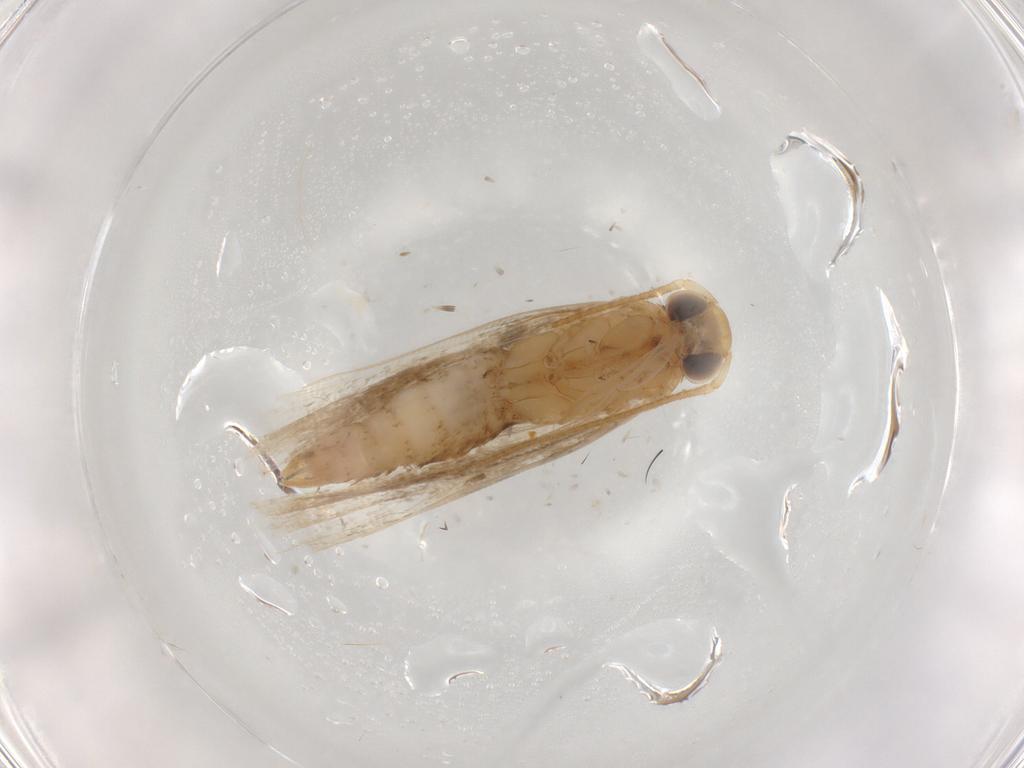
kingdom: Animalia
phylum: Arthropoda
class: Insecta
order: Lepidoptera
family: Gelechiidae
